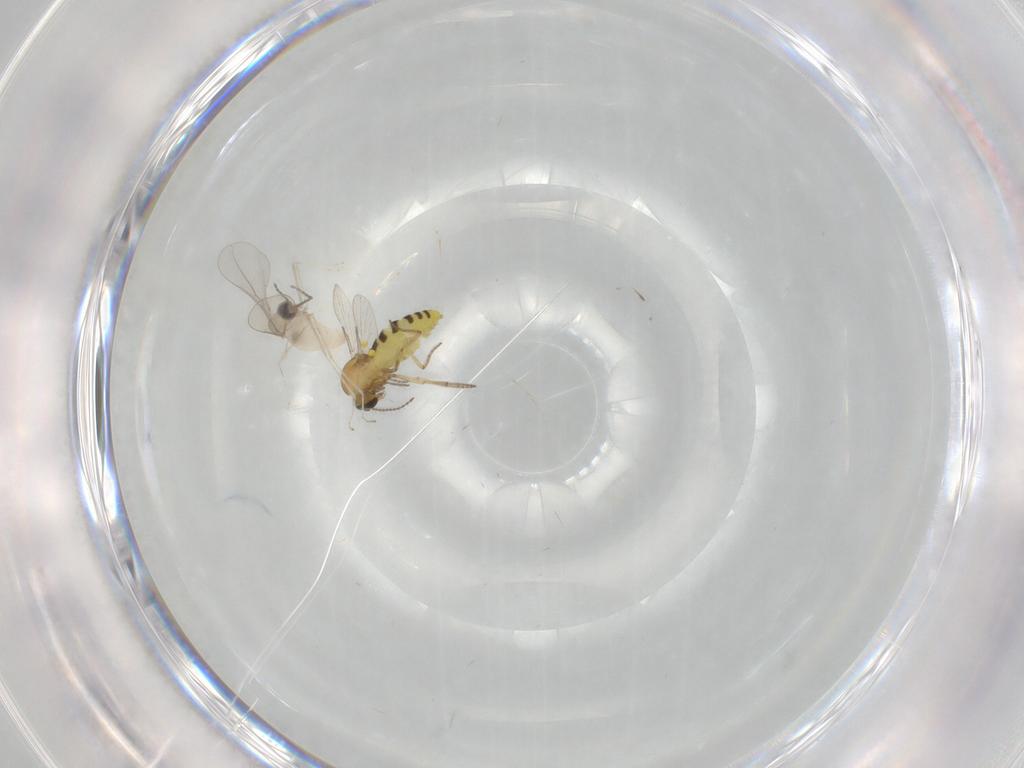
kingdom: Animalia
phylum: Arthropoda
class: Insecta
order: Diptera
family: Cecidomyiidae
